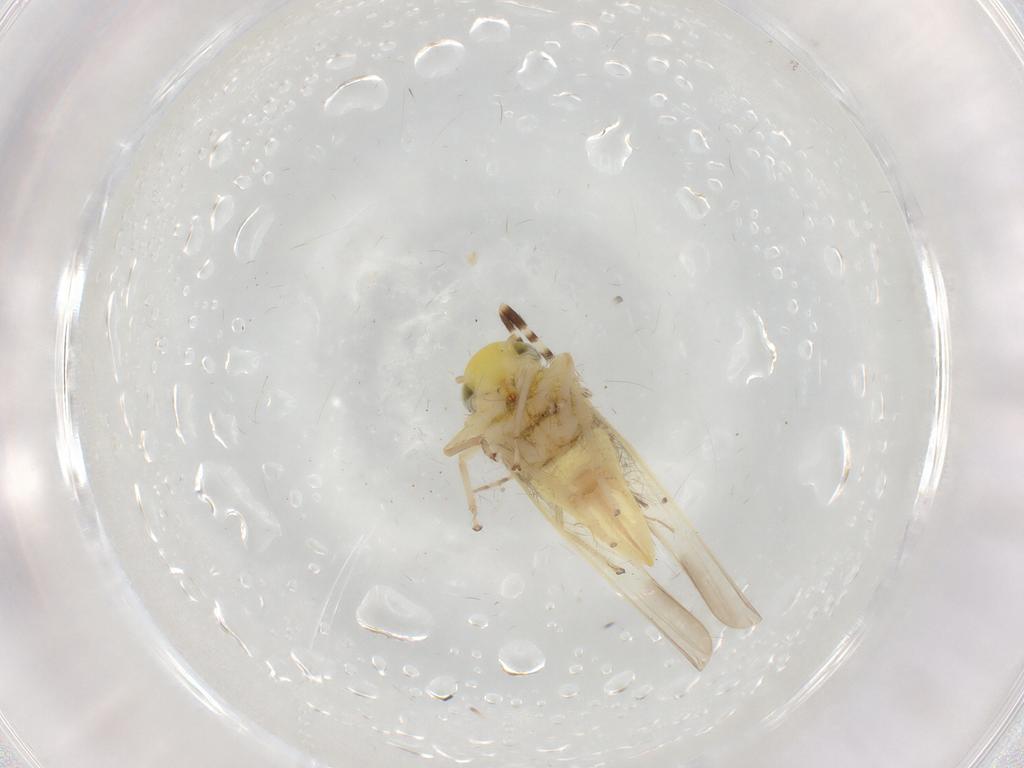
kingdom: Animalia
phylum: Arthropoda
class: Insecta
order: Hemiptera
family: Cicadellidae
